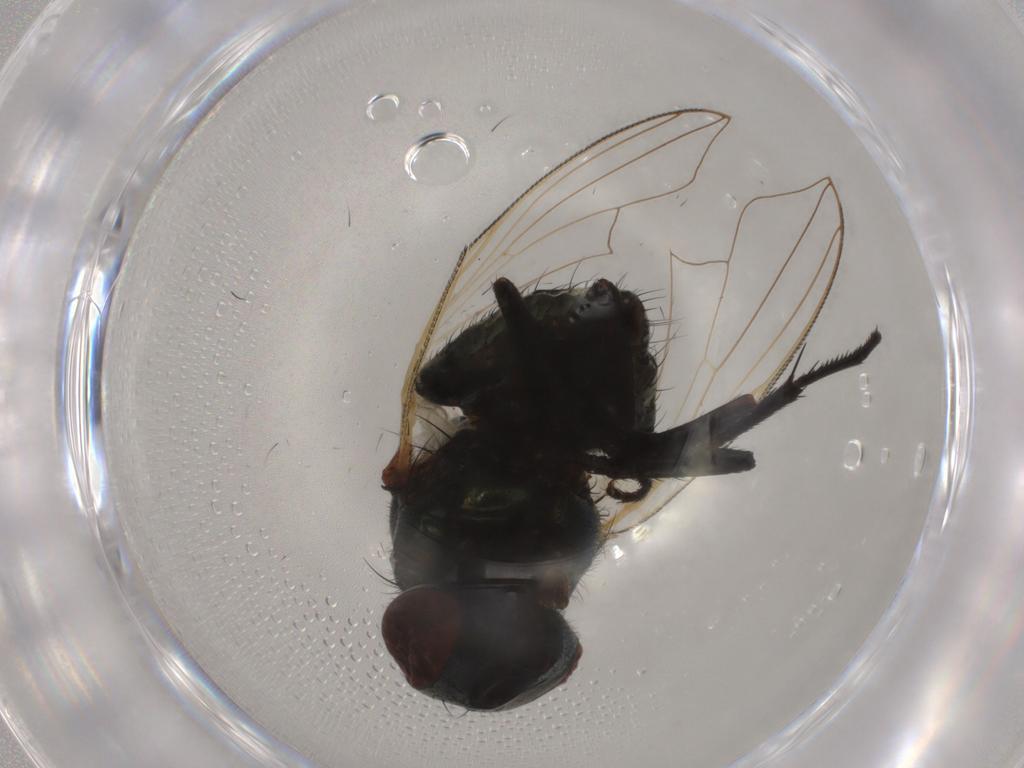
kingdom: Animalia
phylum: Arthropoda
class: Insecta
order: Diptera
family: Muscidae
